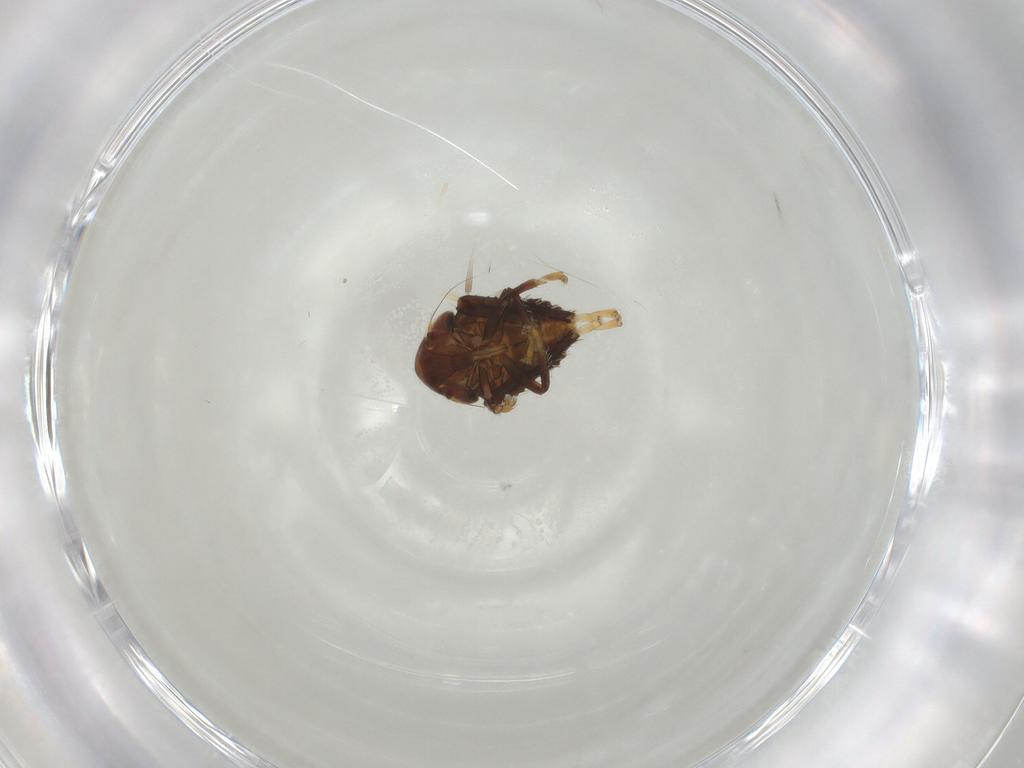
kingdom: Animalia
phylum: Arthropoda
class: Insecta
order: Hemiptera
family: Cicadellidae
